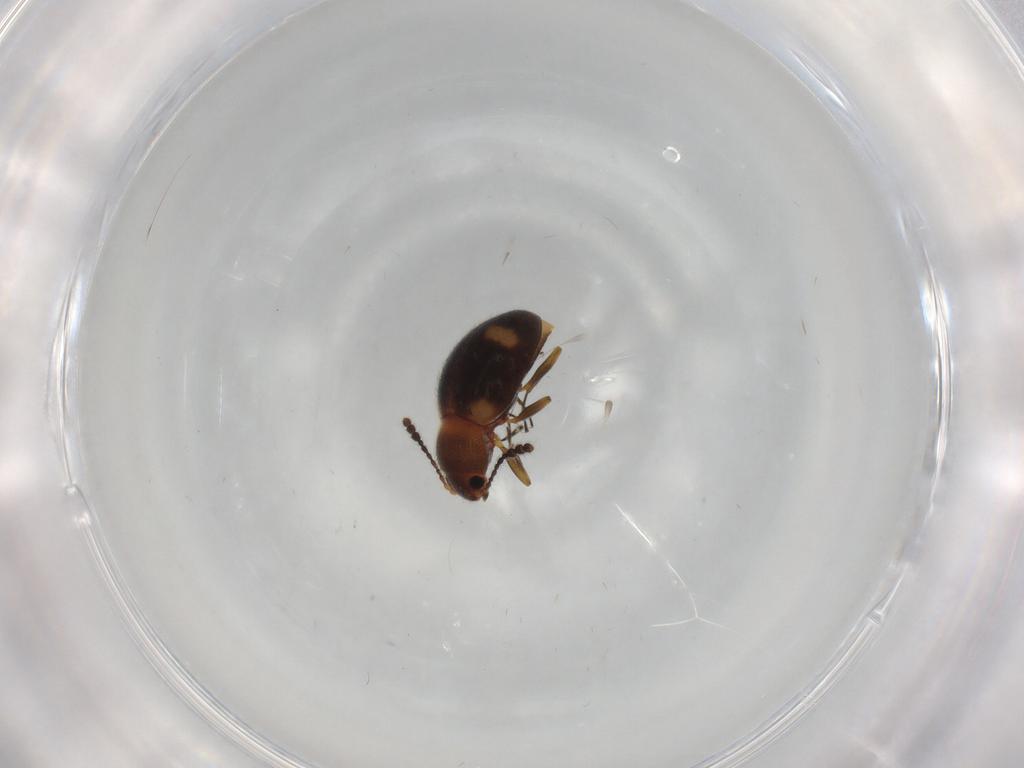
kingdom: Animalia
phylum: Arthropoda
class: Insecta
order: Coleoptera
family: Erotylidae
